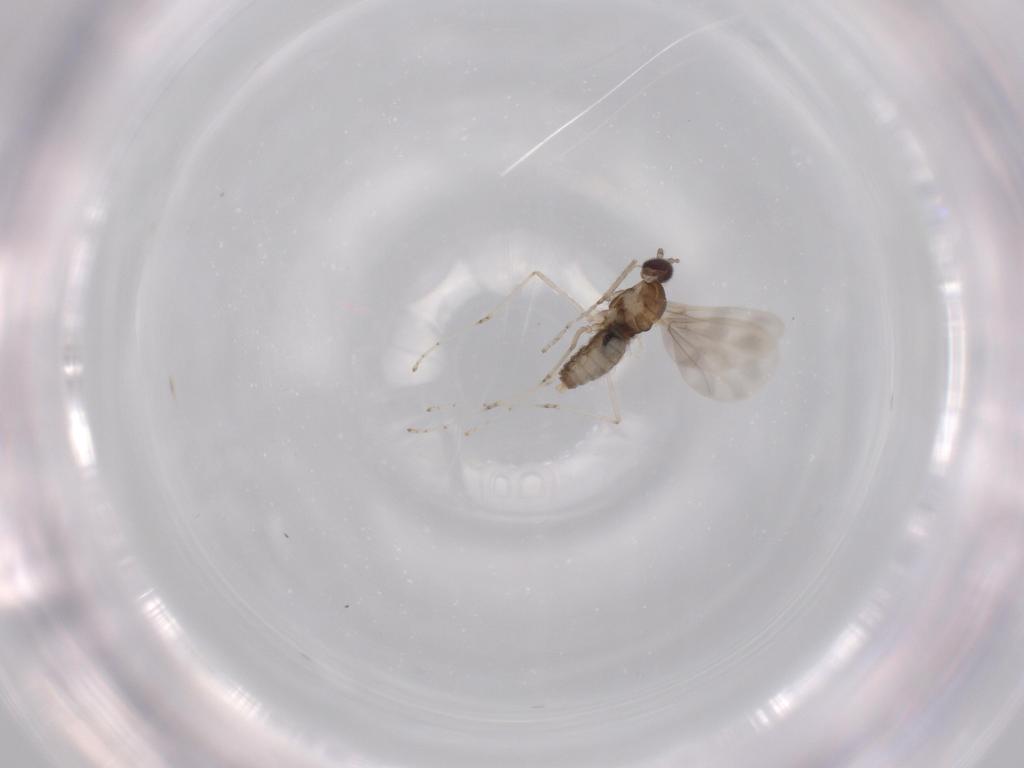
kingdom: Animalia
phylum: Arthropoda
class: Insecta
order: Diptera
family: Cecidomyiidae
